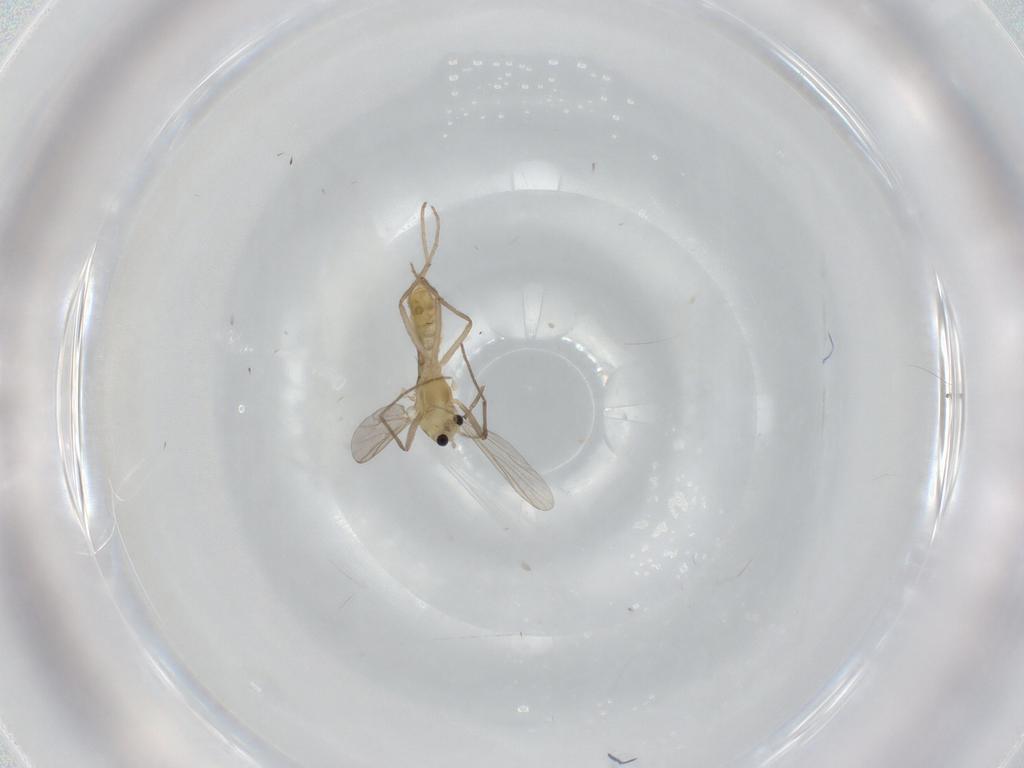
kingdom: Animalia
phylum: Arthropoda
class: Insecta
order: Diptera
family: Chironomidae
